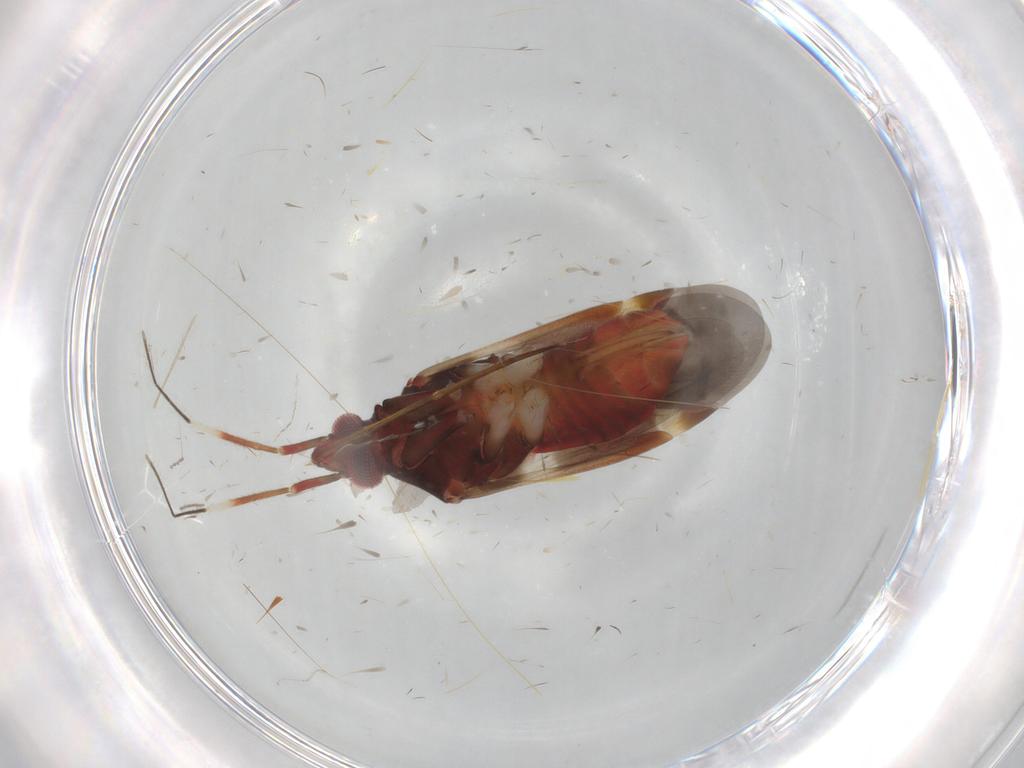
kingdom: Animalia
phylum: Arthropoda
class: Insecta
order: Hemiptera
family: Miridae
